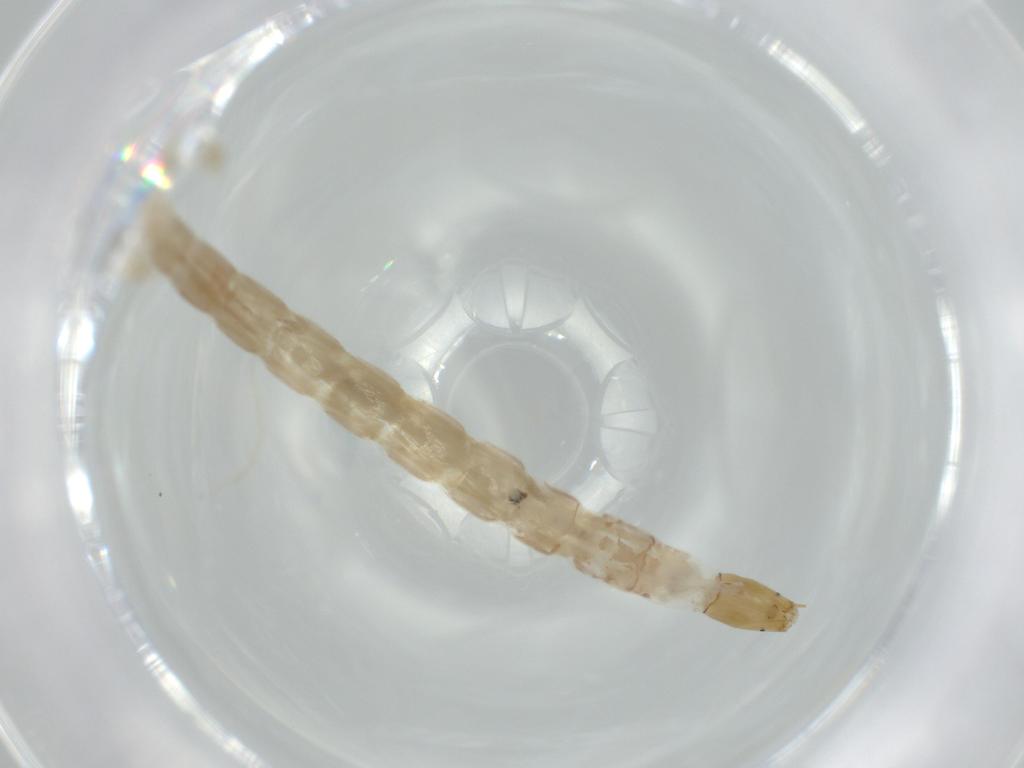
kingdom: Animalia
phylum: Arthropoda
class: Insecta
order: Diptera
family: Chironomidae
